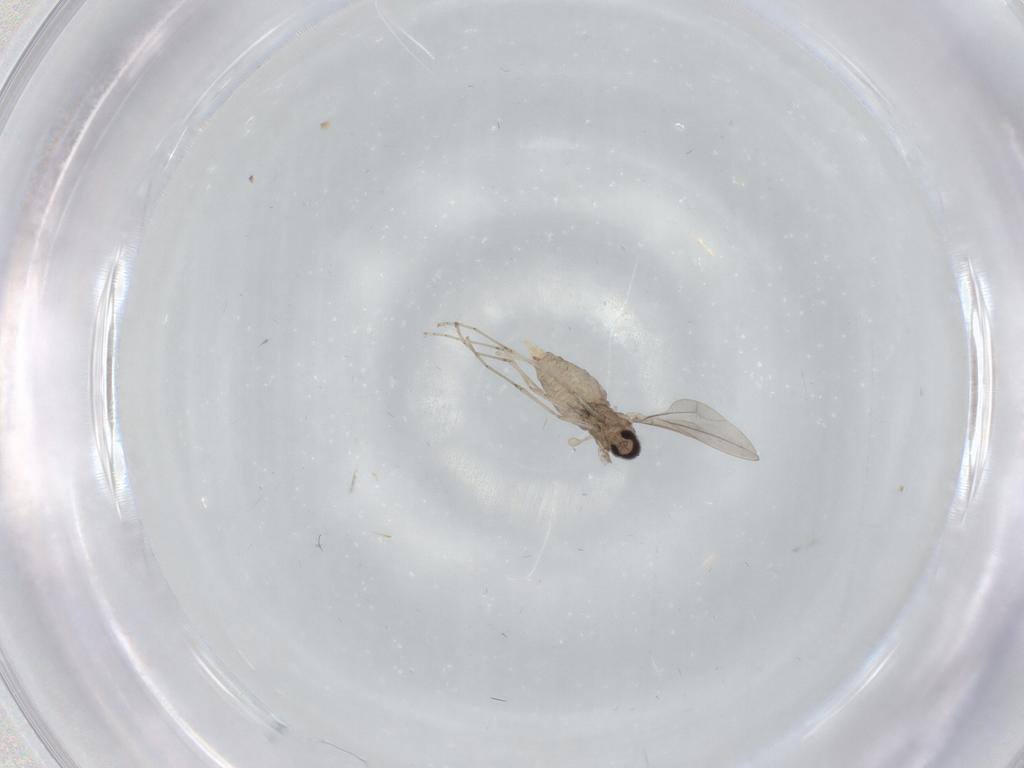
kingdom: Animalia
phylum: Arthropoda
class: Insecta
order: Diptera
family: Cecidomyiidae
